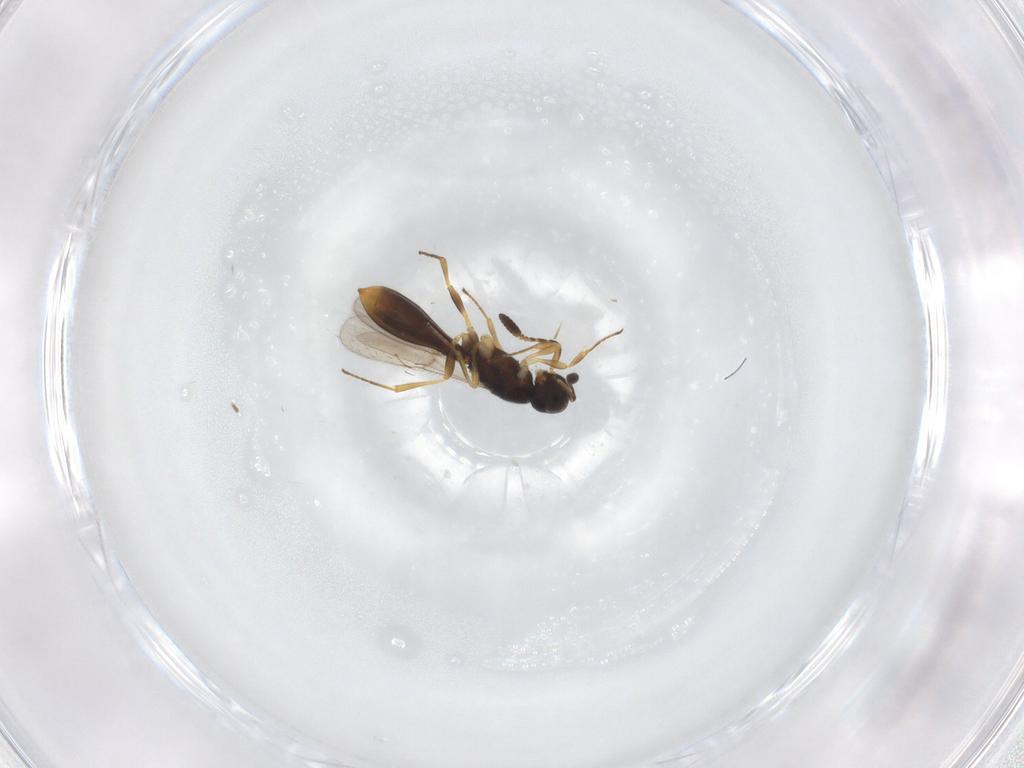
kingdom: Animalia
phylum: Arthropoda
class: Insecta
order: Hymenoptera
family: Scelionidae
